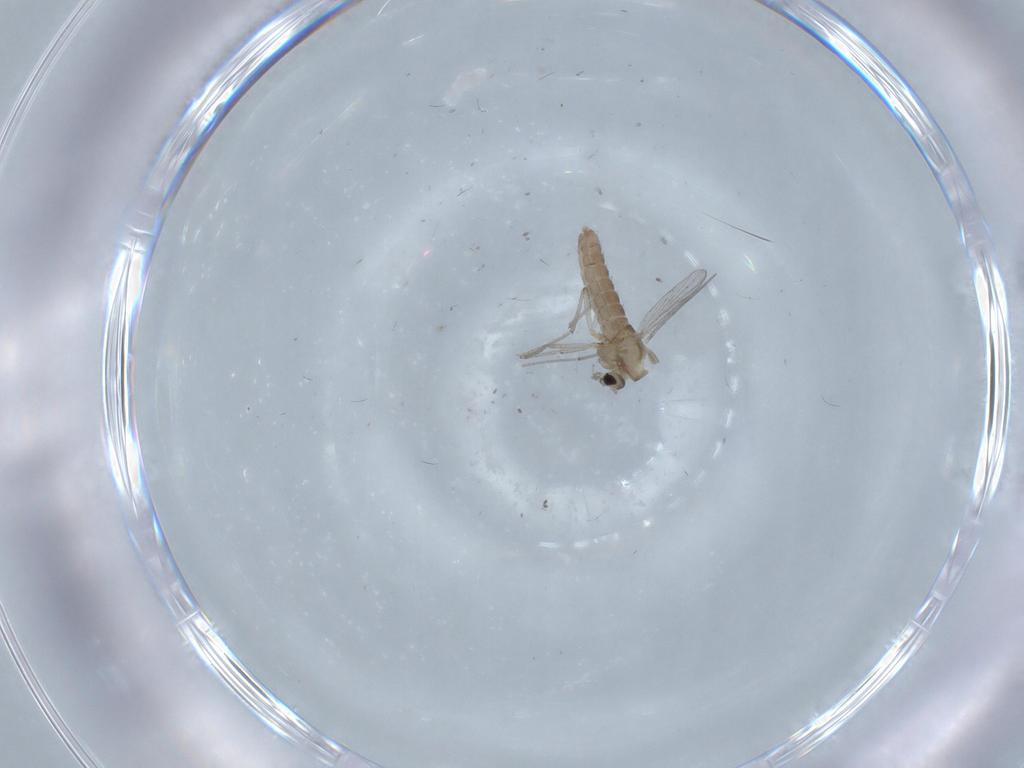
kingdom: Animalia
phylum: Arthropoda
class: Insecta
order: Diptera
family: Chironomidae
